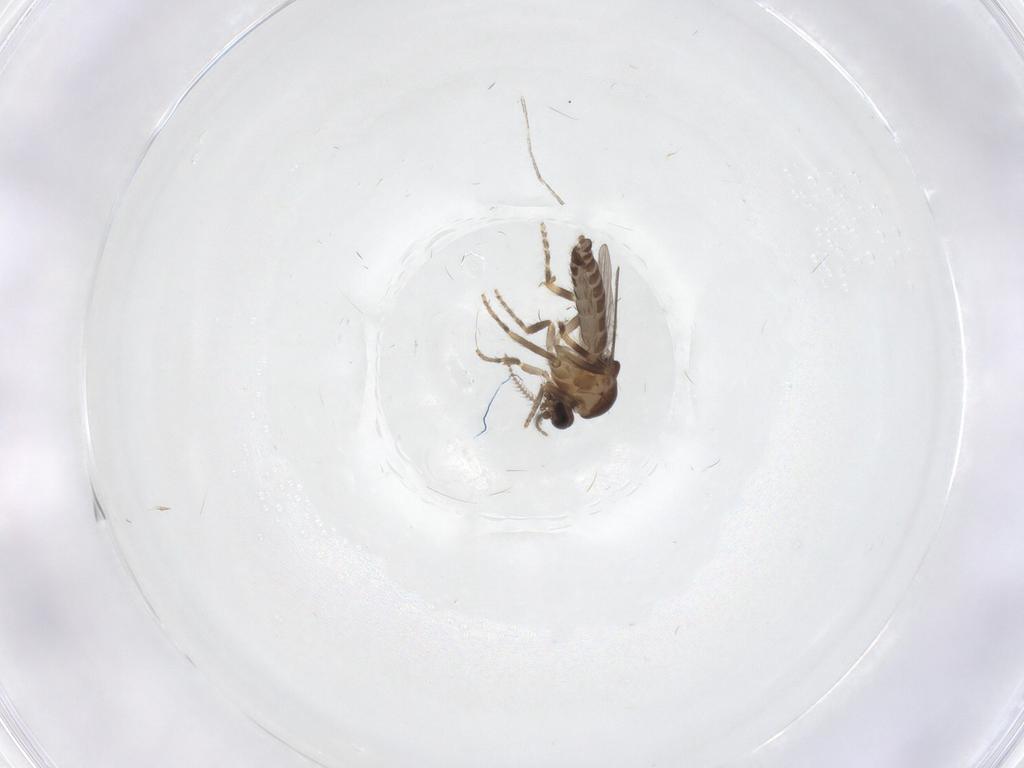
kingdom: Animalia
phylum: Arthropoda
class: Insecta
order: Diptera
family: Ceratopogonidae
